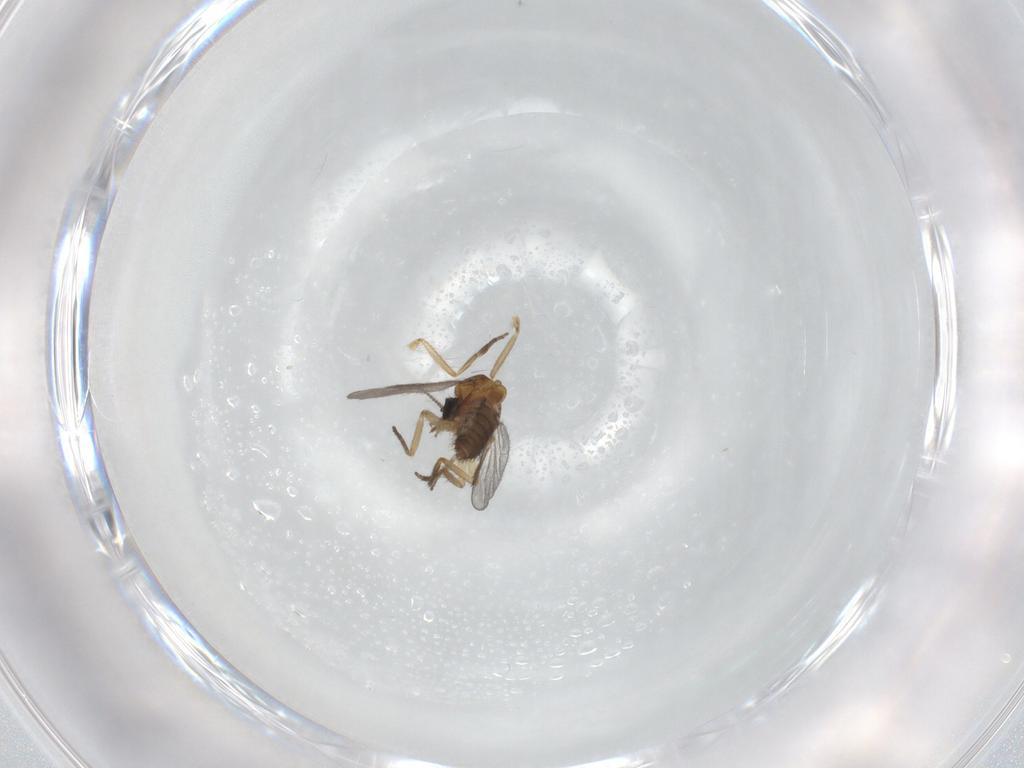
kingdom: Animalia
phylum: Arthropoda
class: Insecta
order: Diptera
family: Ceratopogonidae
